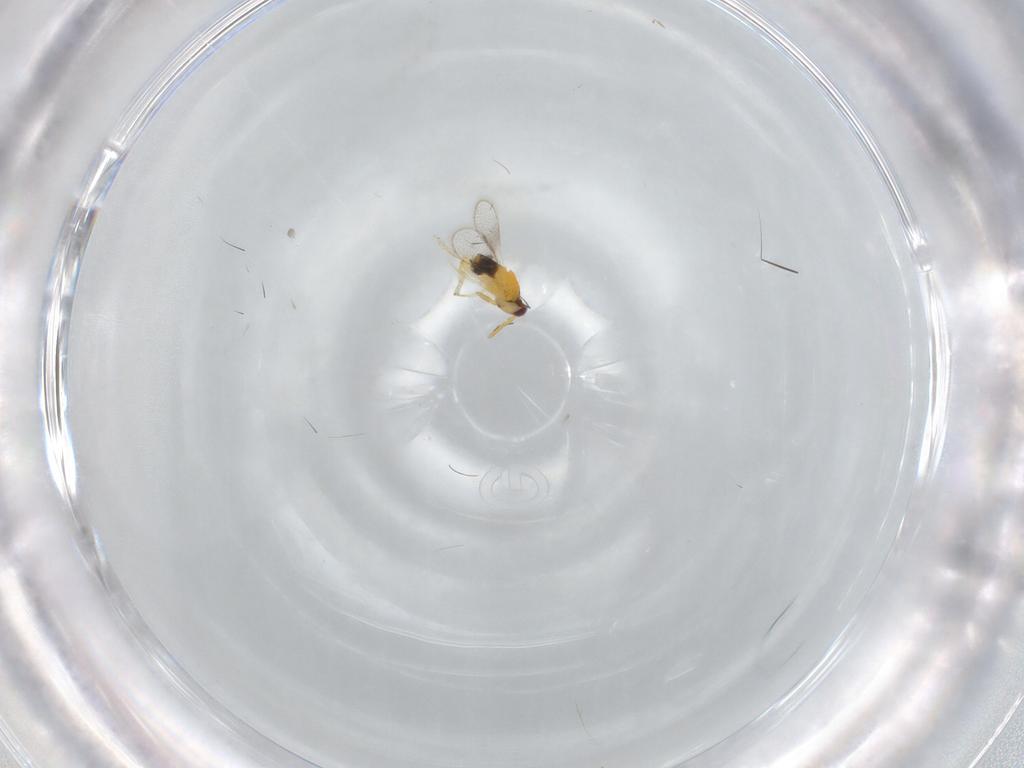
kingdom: Animalia
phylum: Arthropoda
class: Insecta
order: Hymenoptera
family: Aphelinidae
